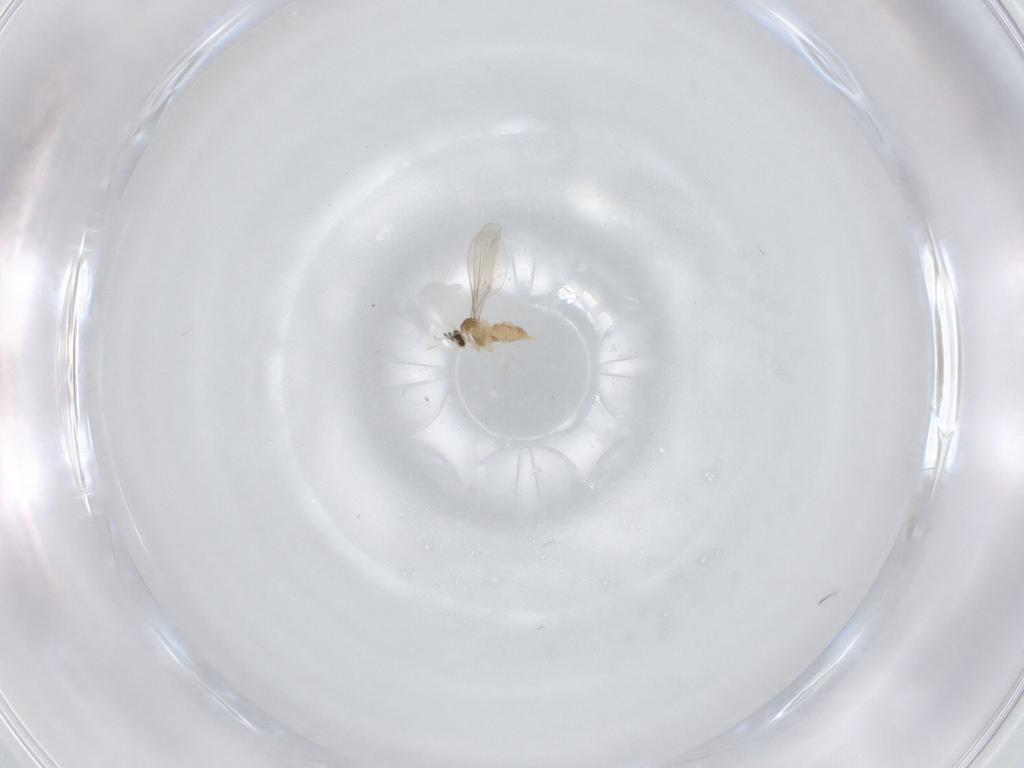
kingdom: Animalia
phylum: Arthropoda
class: Insecta
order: Diptera
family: Cecidomyiidae
